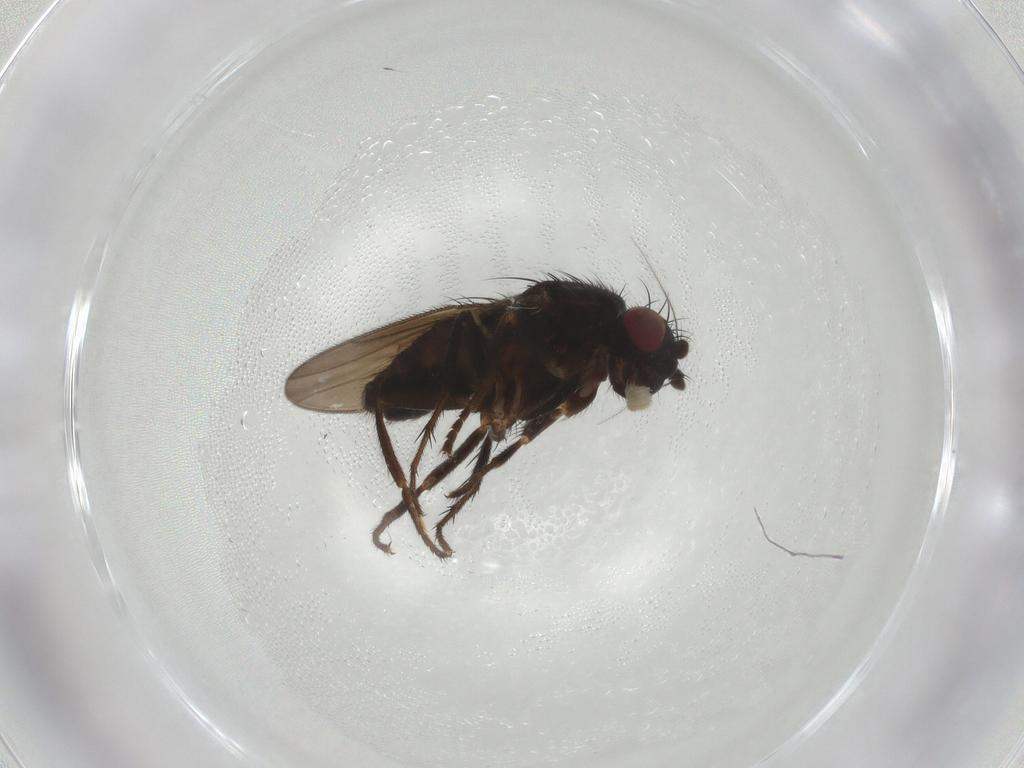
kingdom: Animalia
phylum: Arthropoda
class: Insecta
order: Diptera
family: Sphaeroceridae
